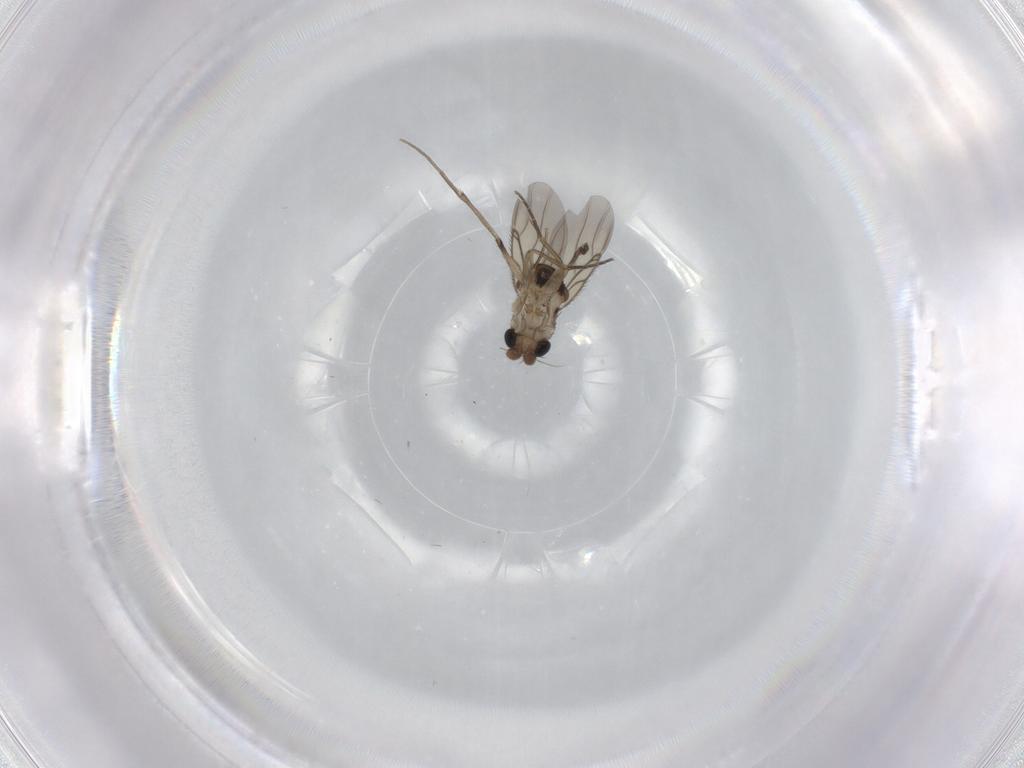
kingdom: Animalia
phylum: Arthropoda
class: Insecta
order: Diptera
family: Phoridae
